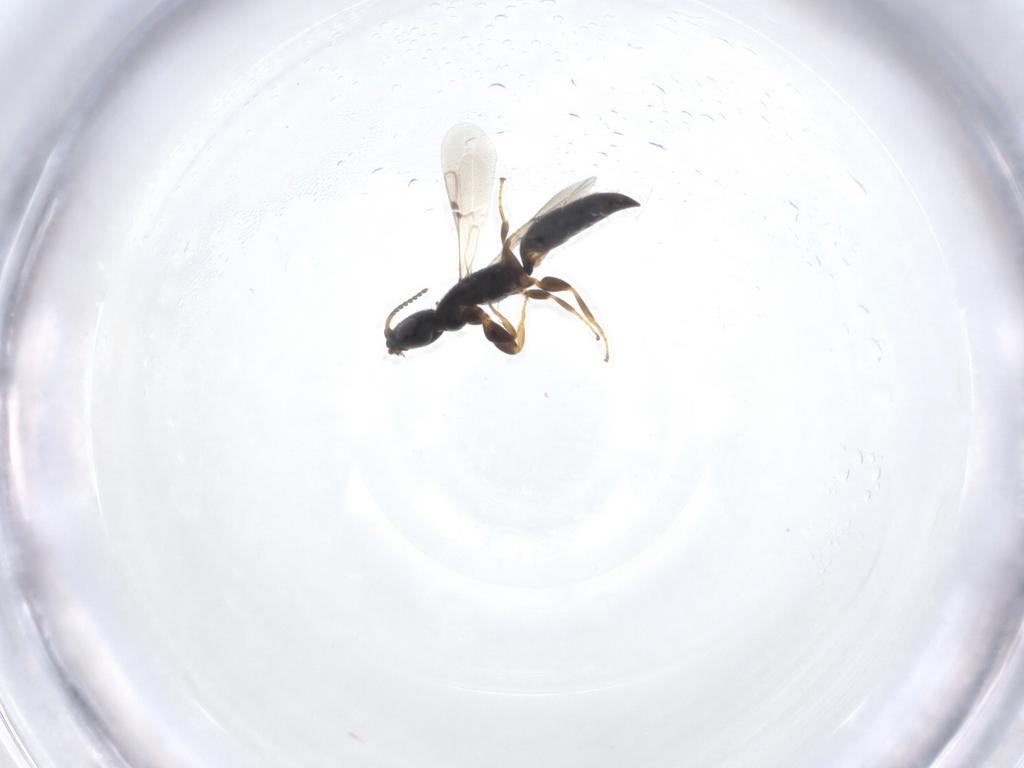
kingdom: Animalia
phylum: Arthropoda
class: Insecta
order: Hymenoptera
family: Bethylidae
